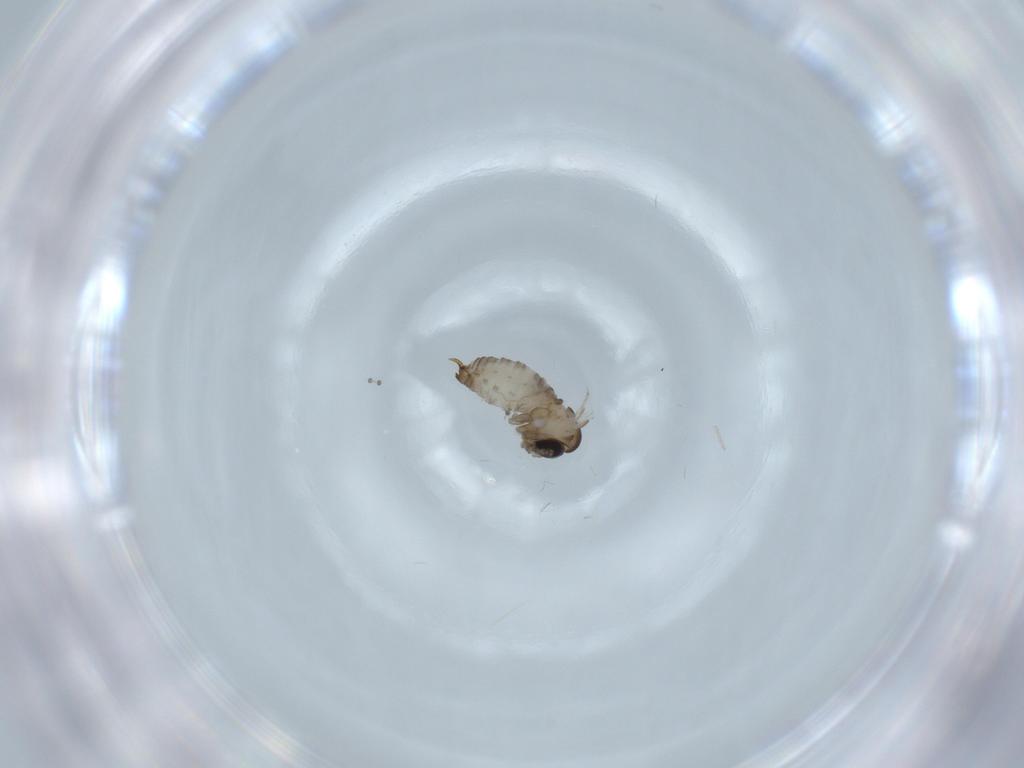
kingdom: Animalia
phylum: Arthropoda
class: Insecta
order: Diptera
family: Psychodidae
